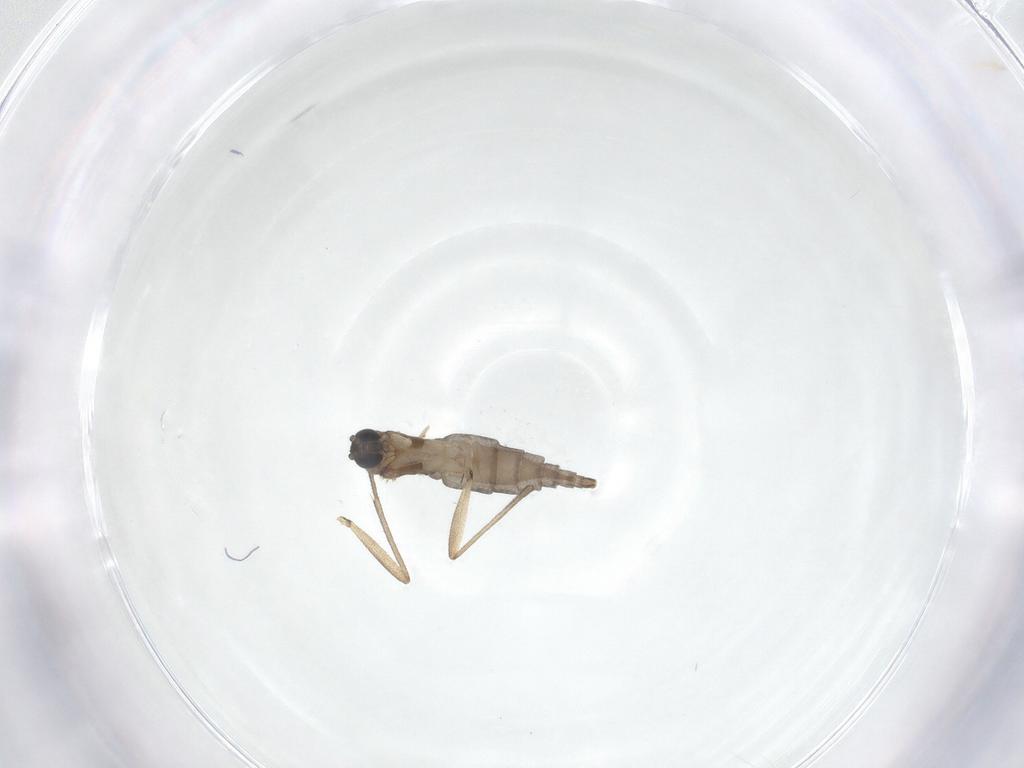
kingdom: Animalia
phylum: Arthropoda
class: Insecta
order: Diptera
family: Sciaridae
